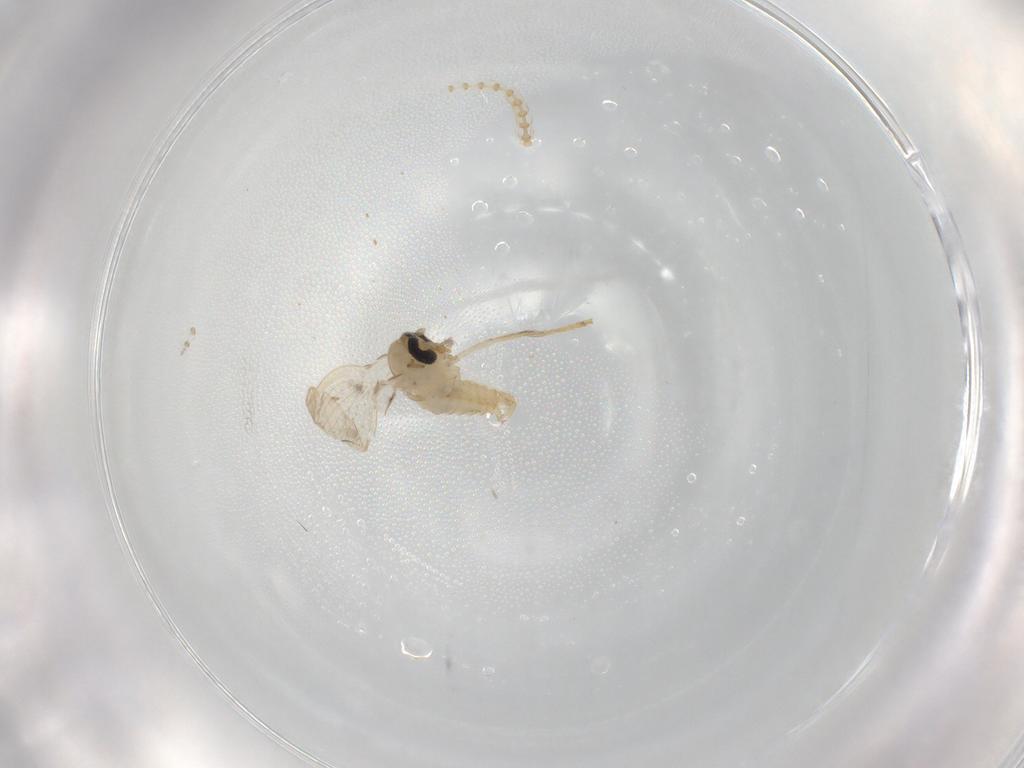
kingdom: Animalia
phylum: Arthropoda
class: Insecta
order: Diptera
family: Psychodidae
